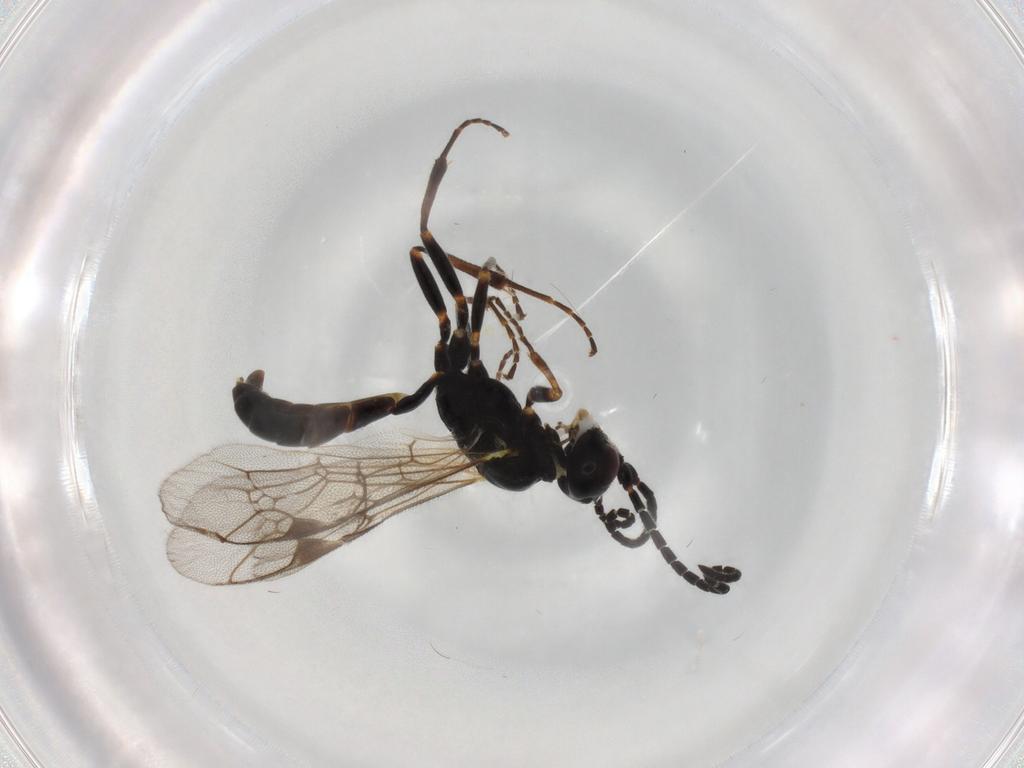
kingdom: Animalia
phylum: Arthropoda
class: Insecta
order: Hymenoptera
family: Ichneumonidae
